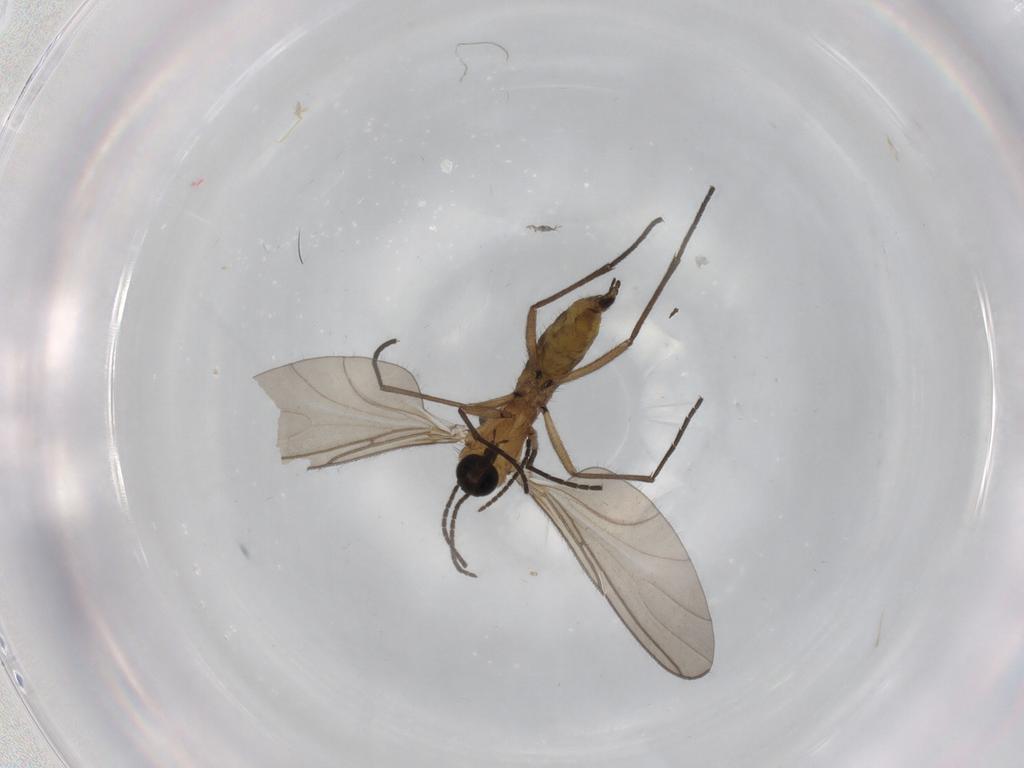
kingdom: Animalia
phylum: Arthropoda
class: Insecta
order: Diptera
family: Sciaridae
